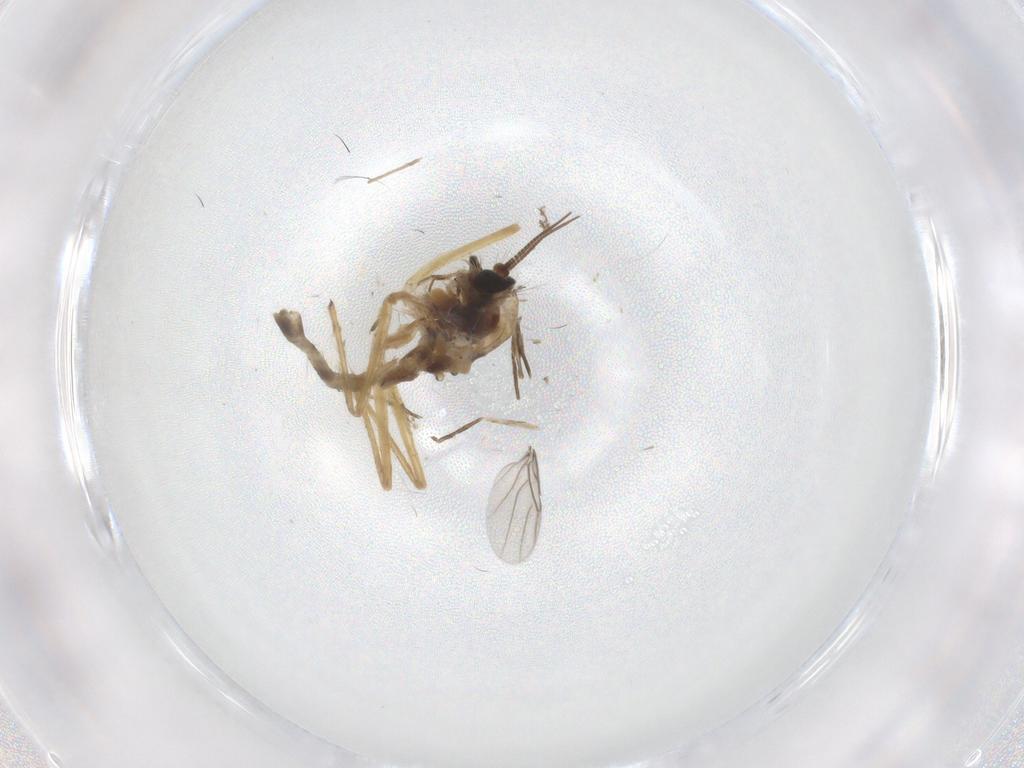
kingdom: Animalia
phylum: Arthropoda
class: Insecta
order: Diptera
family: Chironomidae
